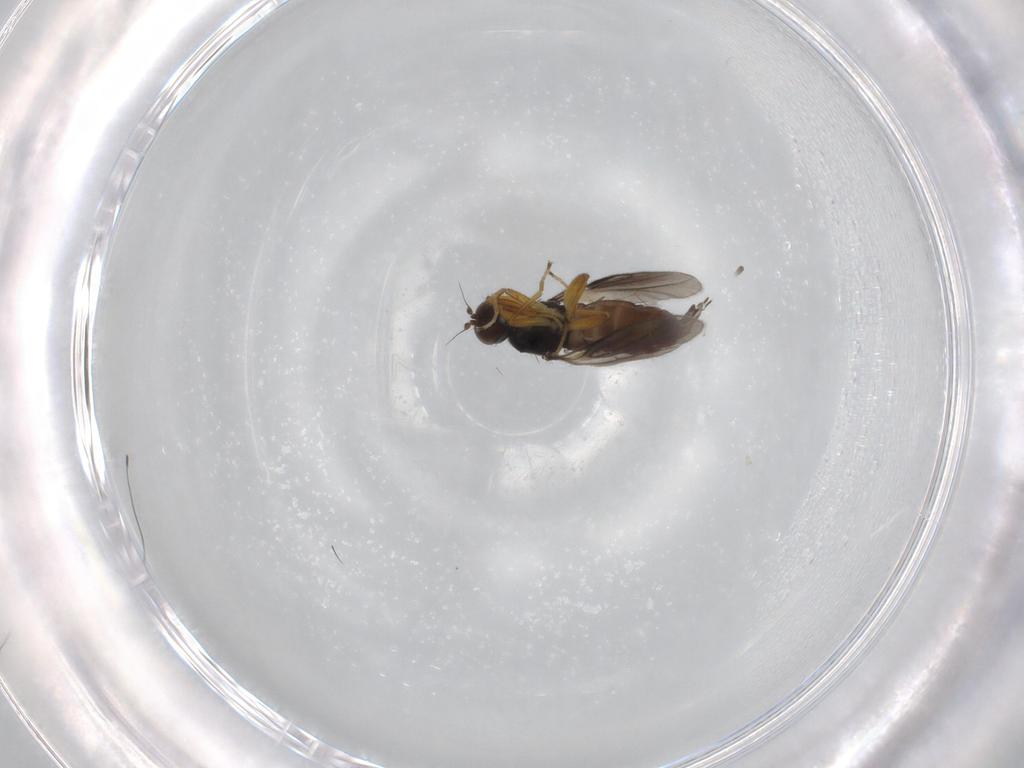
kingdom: Animalia
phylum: Arthropoda
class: Insecta
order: Diptera
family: Hybotidae
